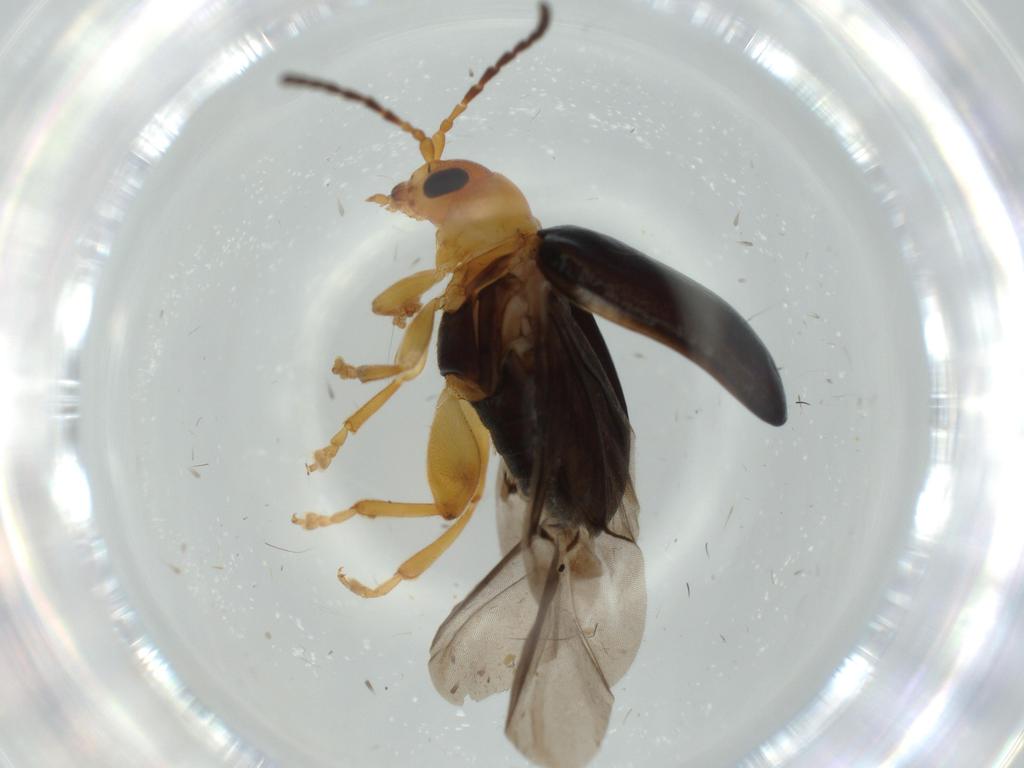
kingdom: Animalia
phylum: Arthropoda
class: Insecta
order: Coleoptera
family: Chrysomelidae
